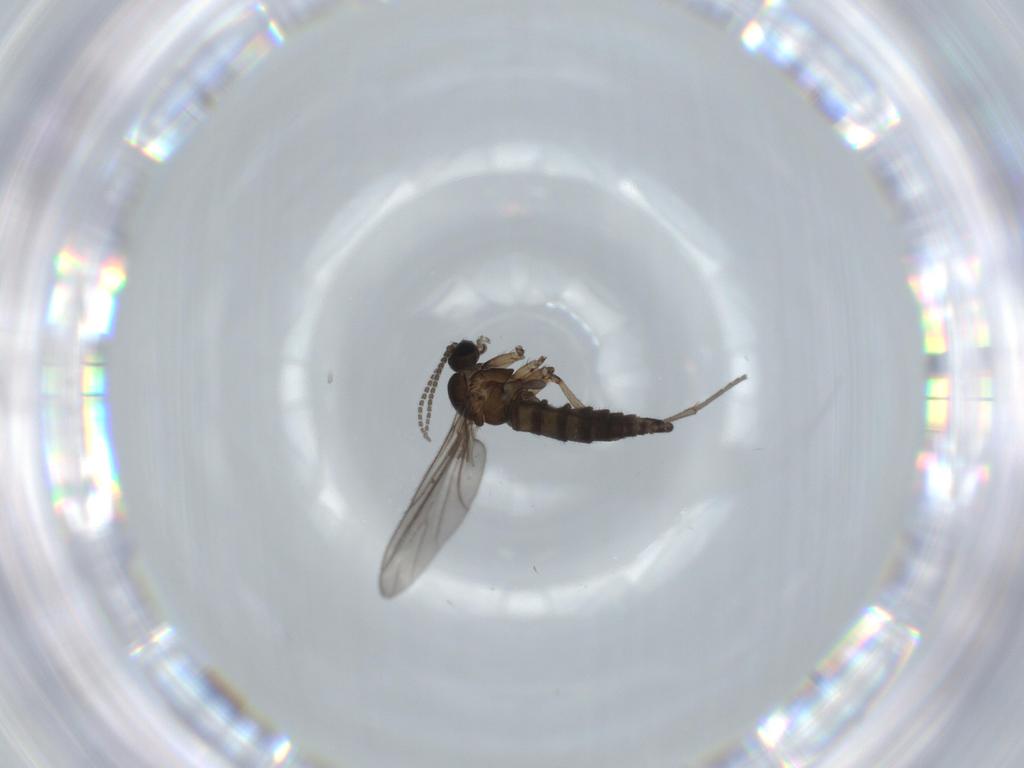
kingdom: Animalia
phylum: Arthropoda
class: Insecta
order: Diptera
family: Sciaridae
